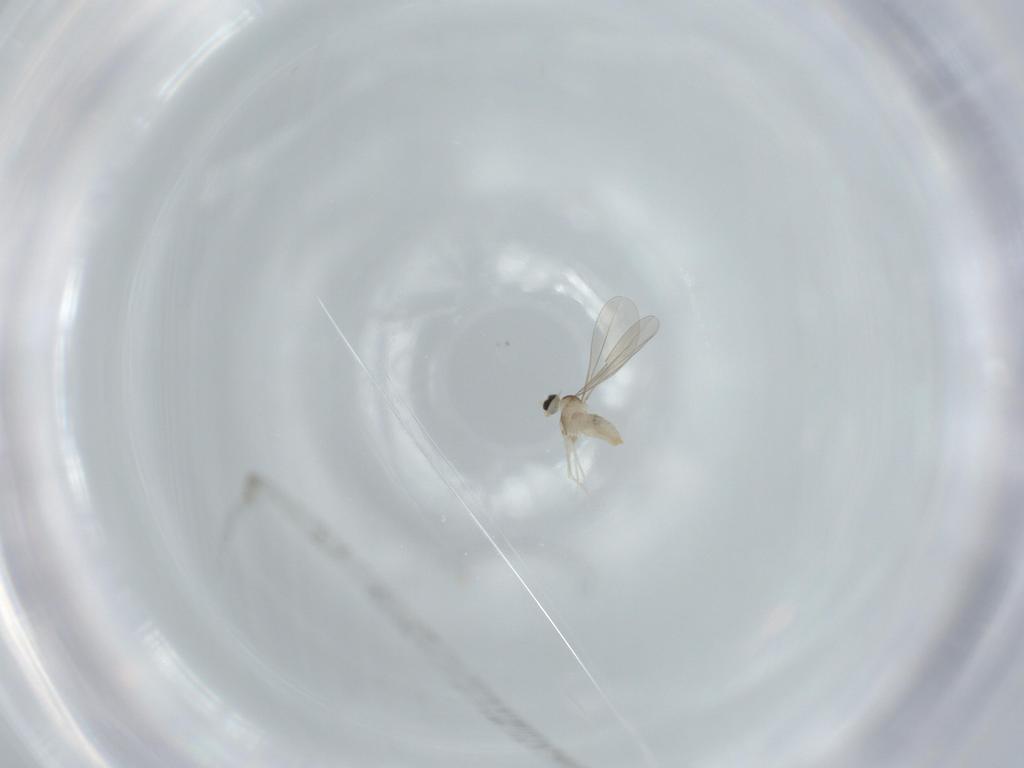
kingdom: Animalia
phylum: Arthropoda
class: Insecta
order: Diptera
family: Cecidomyiidae
